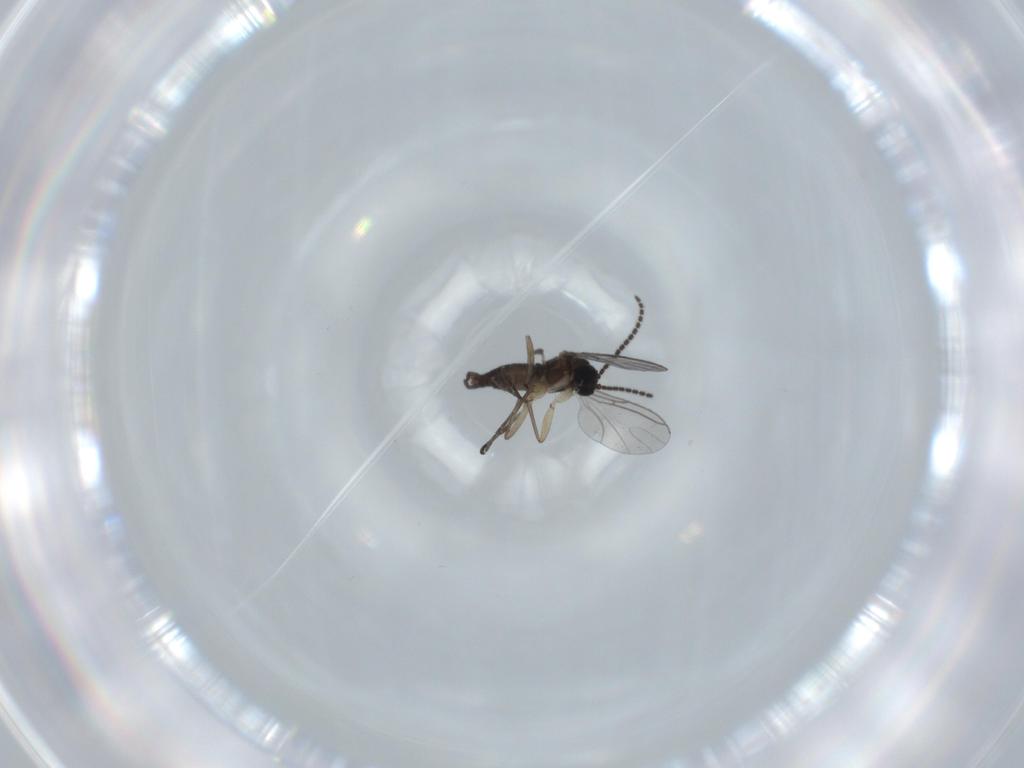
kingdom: Animalia
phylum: Arthropoda
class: Insecta
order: Diptera
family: Sciaridae
